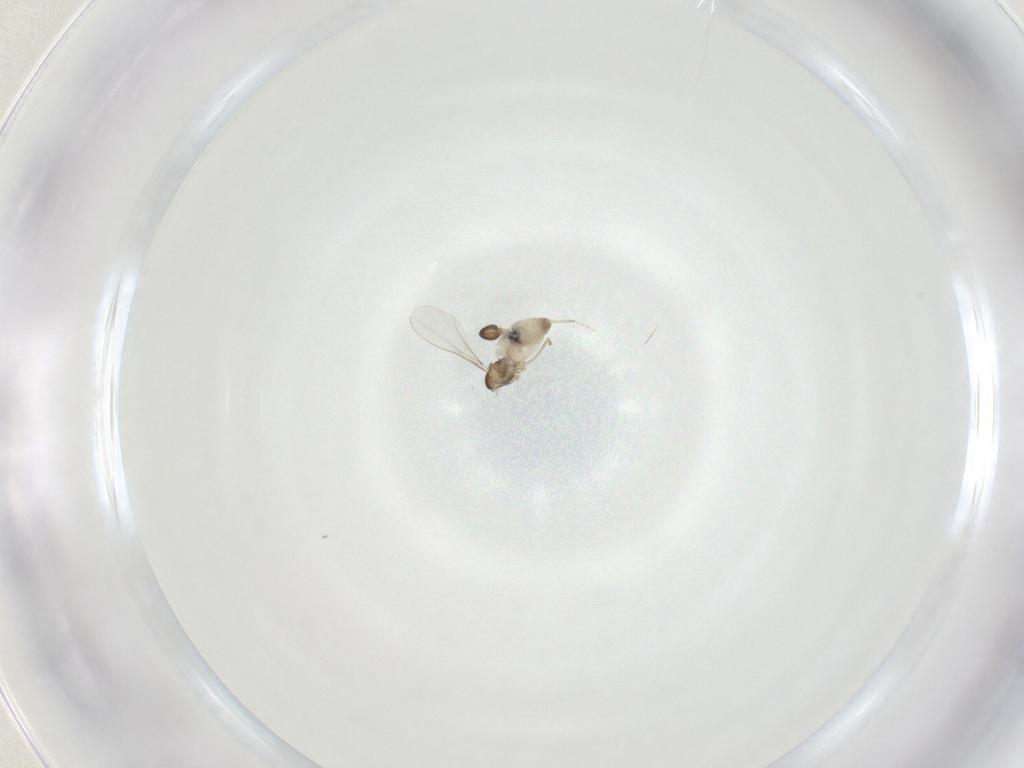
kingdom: Animalia
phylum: Arthropoda
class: Insecta
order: Diptera
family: Cecidomyiidae
